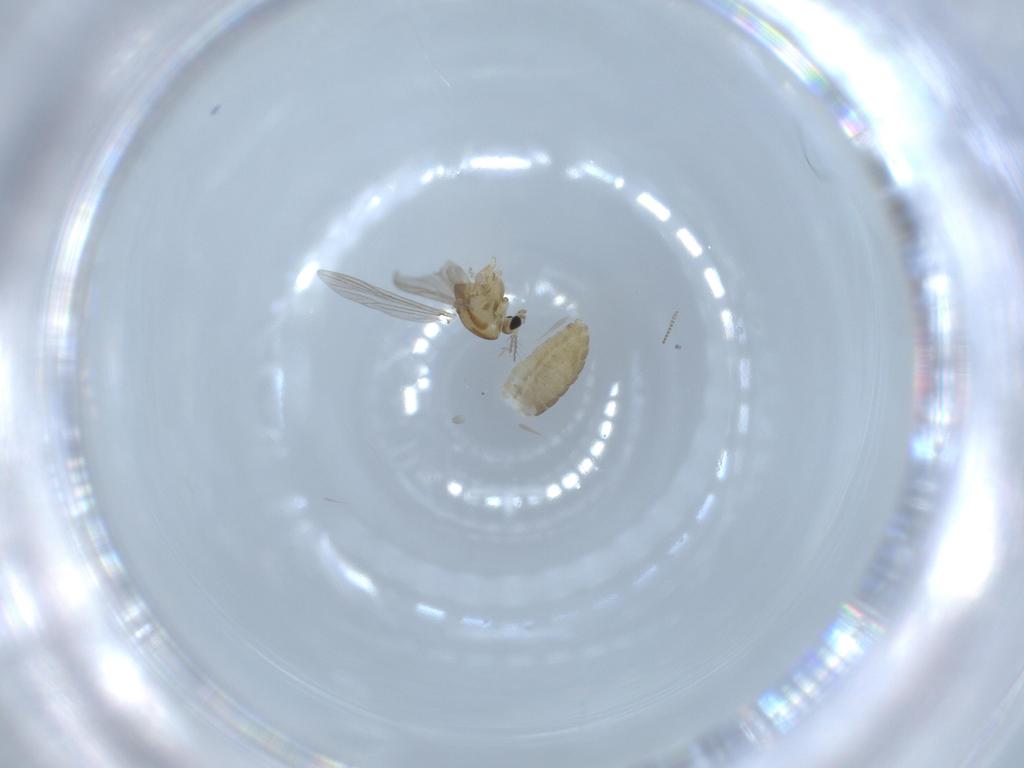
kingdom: Animalia
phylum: Arthropoda
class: Insecta
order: Diptera
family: Chironomidae
